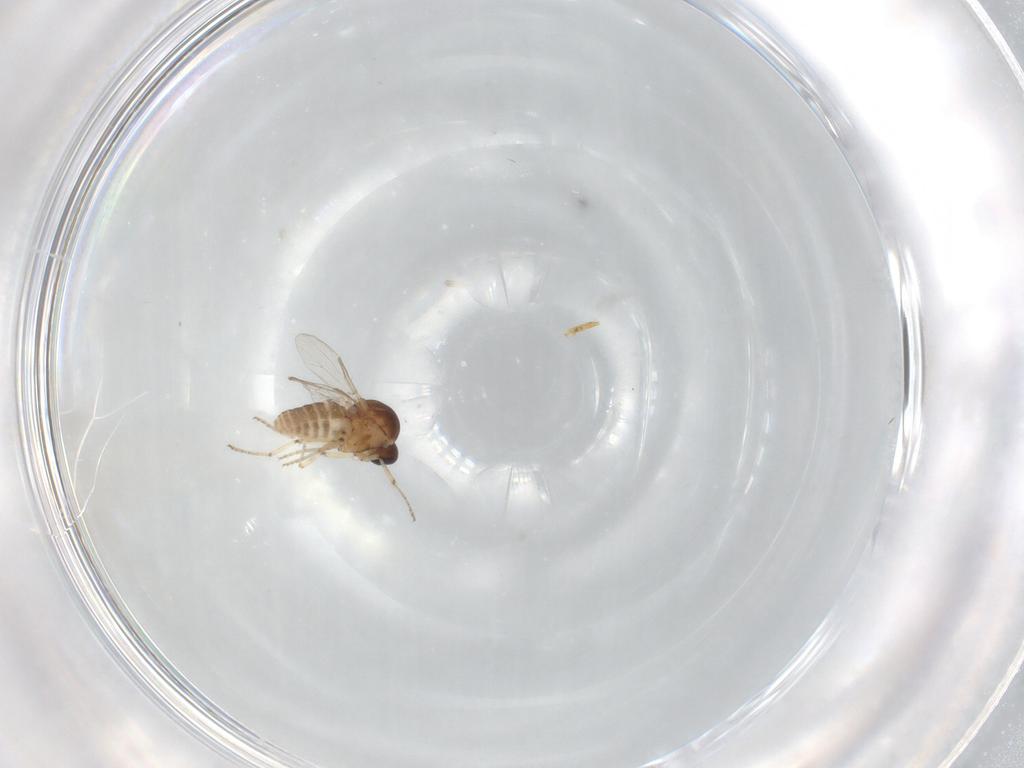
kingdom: Animalia
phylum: Arthropoda
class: Insecta
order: Diptera
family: Ceratopogonidae
